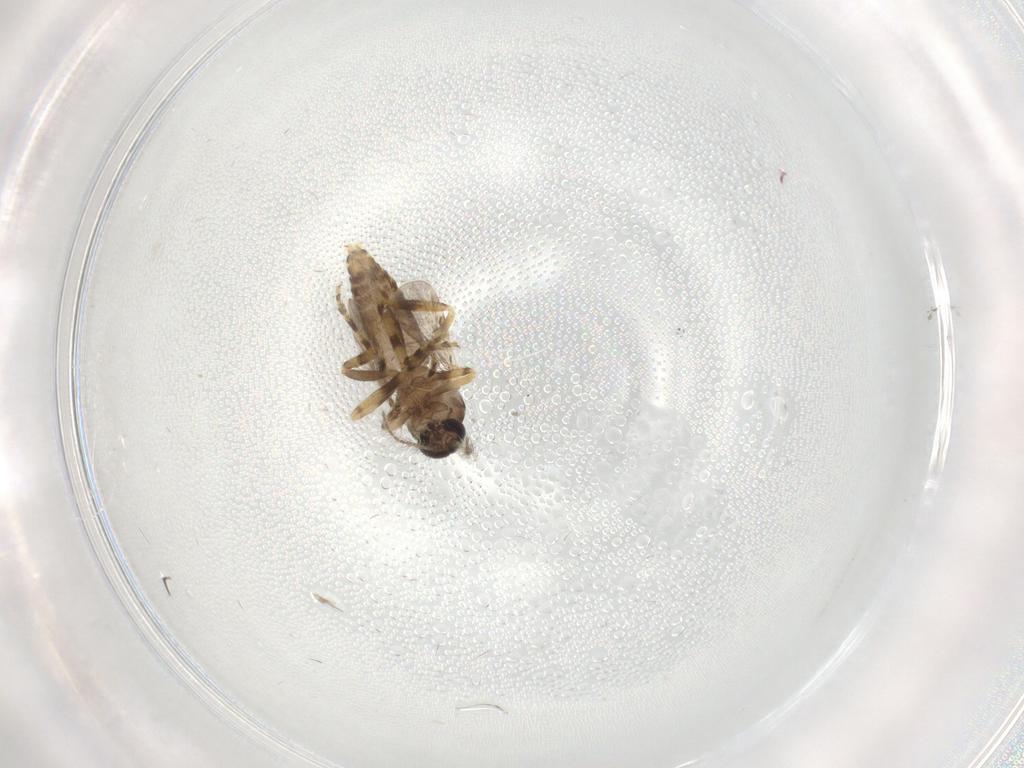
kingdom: Animalia
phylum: Arthropoda
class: Insecta
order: Diptera
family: Ceratopogonidae
